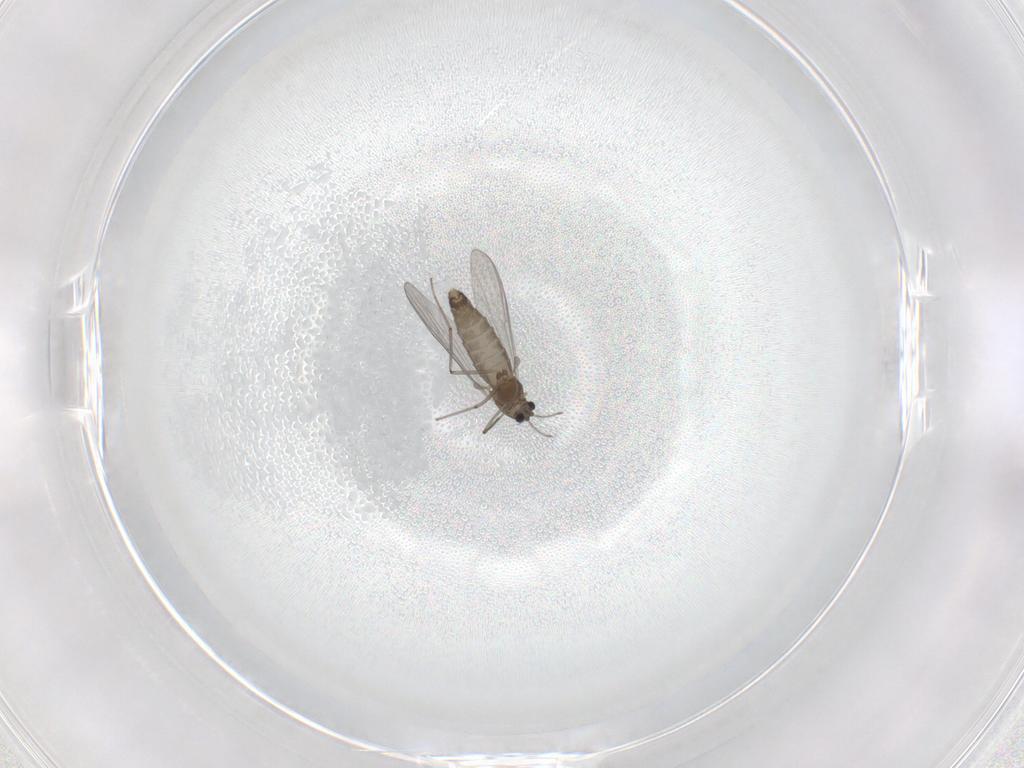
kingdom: Animalia
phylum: Arthropoda
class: Insecta
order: Diptera
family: Chironomidae
